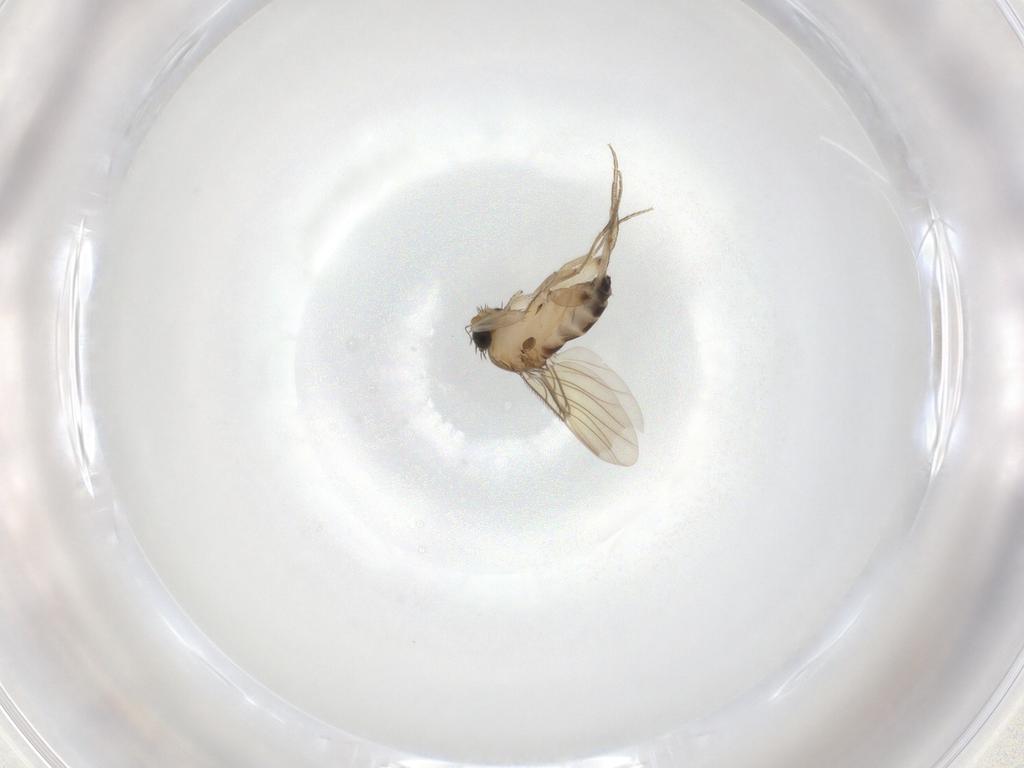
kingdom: Animalia
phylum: Arthropoda
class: Insecta
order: Diptera
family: Phoridae
